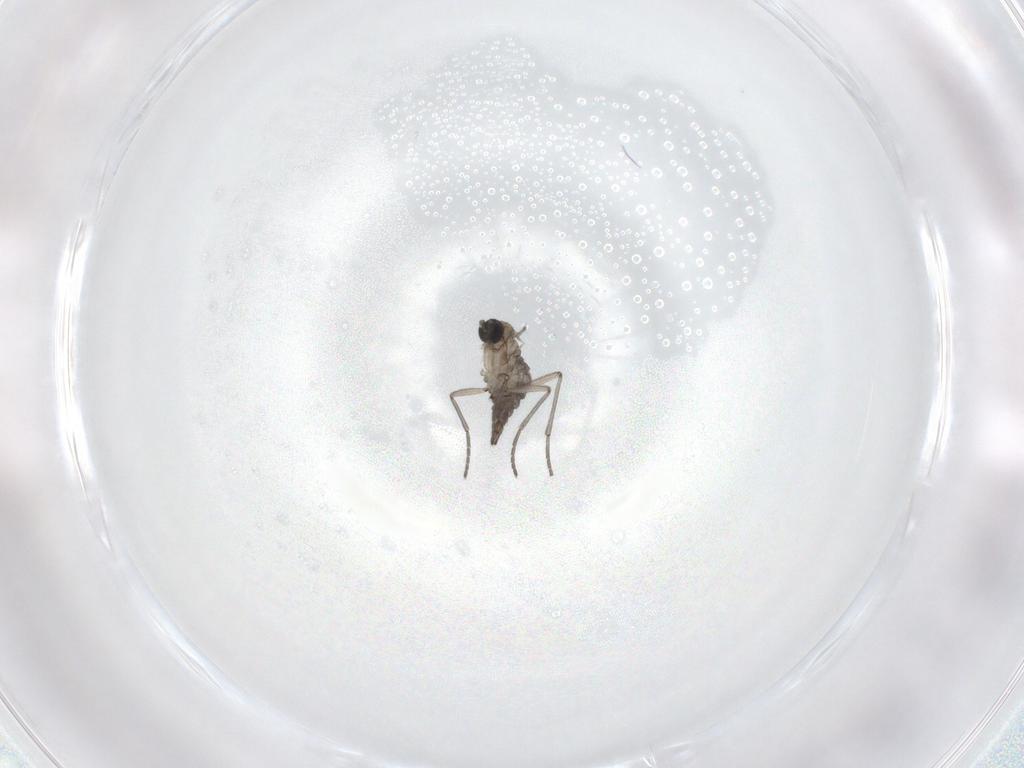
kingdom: Animalia
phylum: Arthropoda
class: Insecta
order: Diptera
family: Sciaridae
